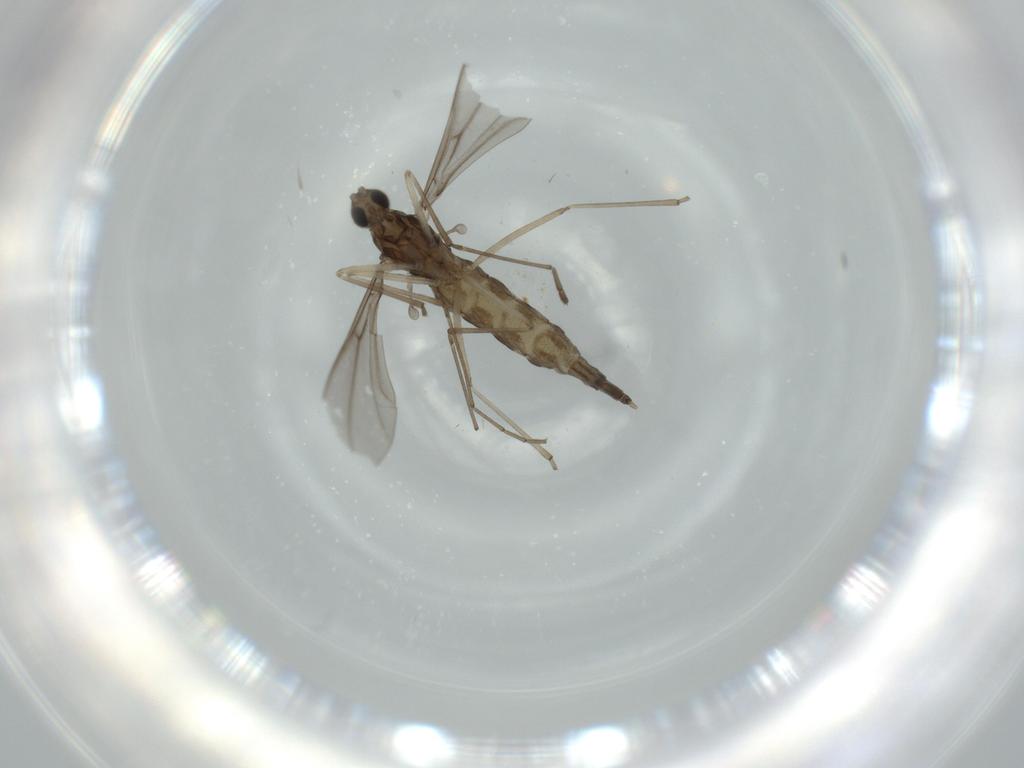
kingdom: Animalia
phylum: Arthropoda
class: Insecta
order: Diptera
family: Cecidomyiidae
